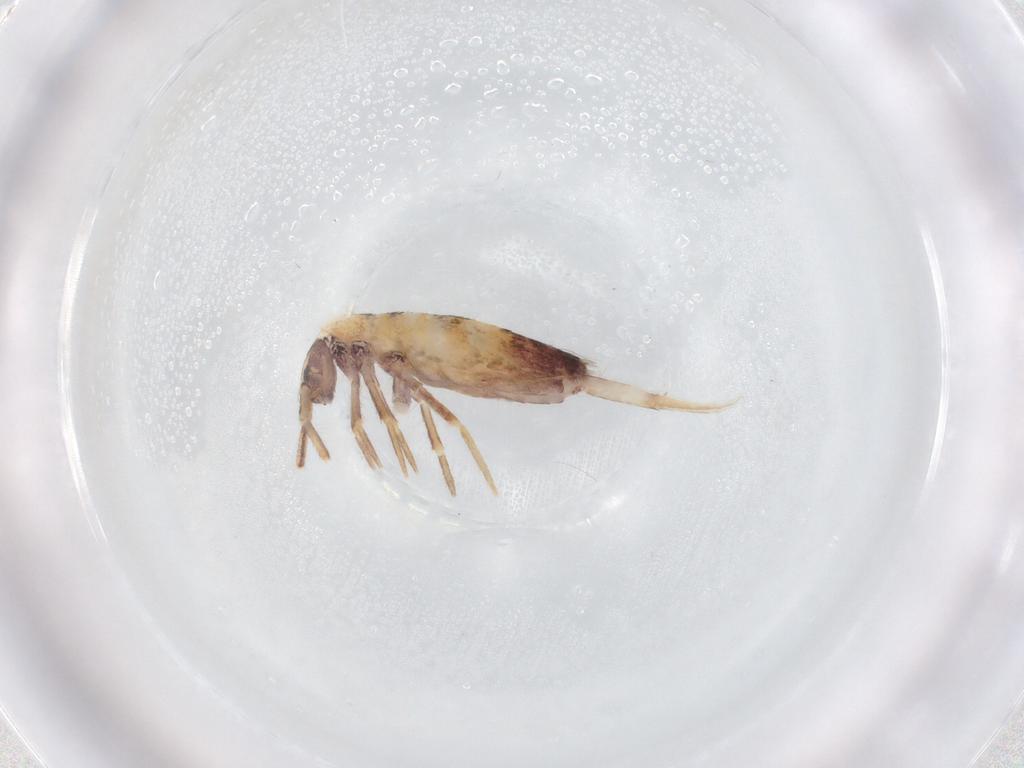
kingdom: Animalia
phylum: Arthropoda
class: Collembola
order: Entomobryomorpha
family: Entomobryidae
